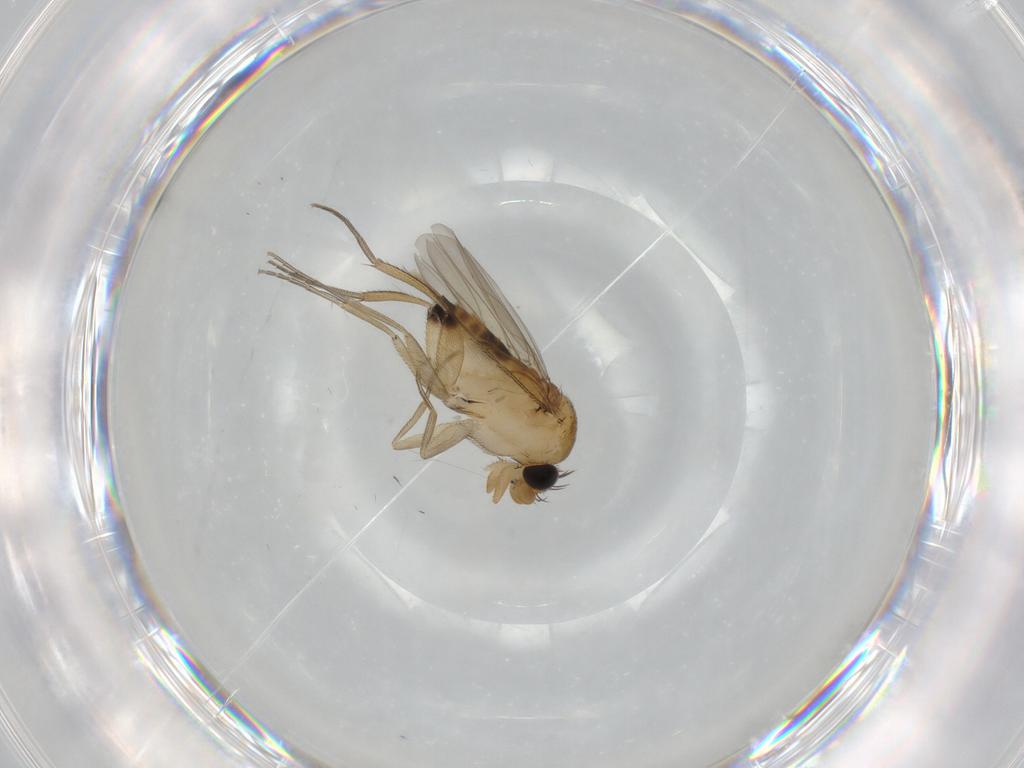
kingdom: Animalia
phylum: Arthropoda
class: Insecta
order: Diptera
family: Phoridae
